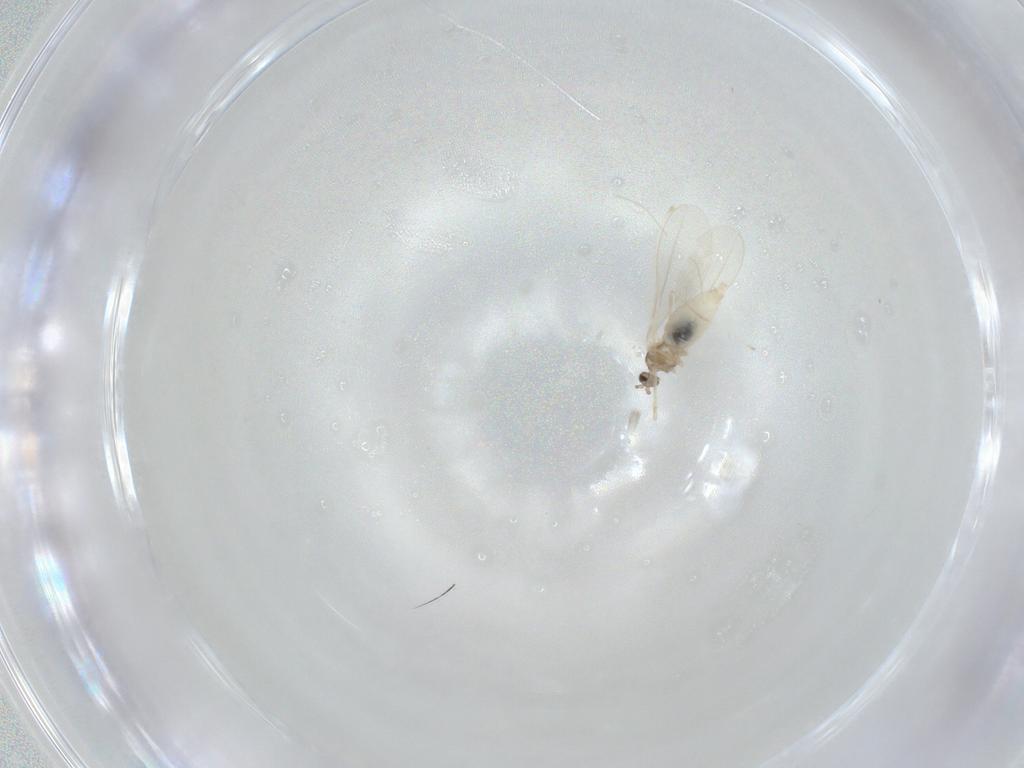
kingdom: Animalia
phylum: Arthropoda
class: Insecta
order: Diptera
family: Cecidomyiidae
